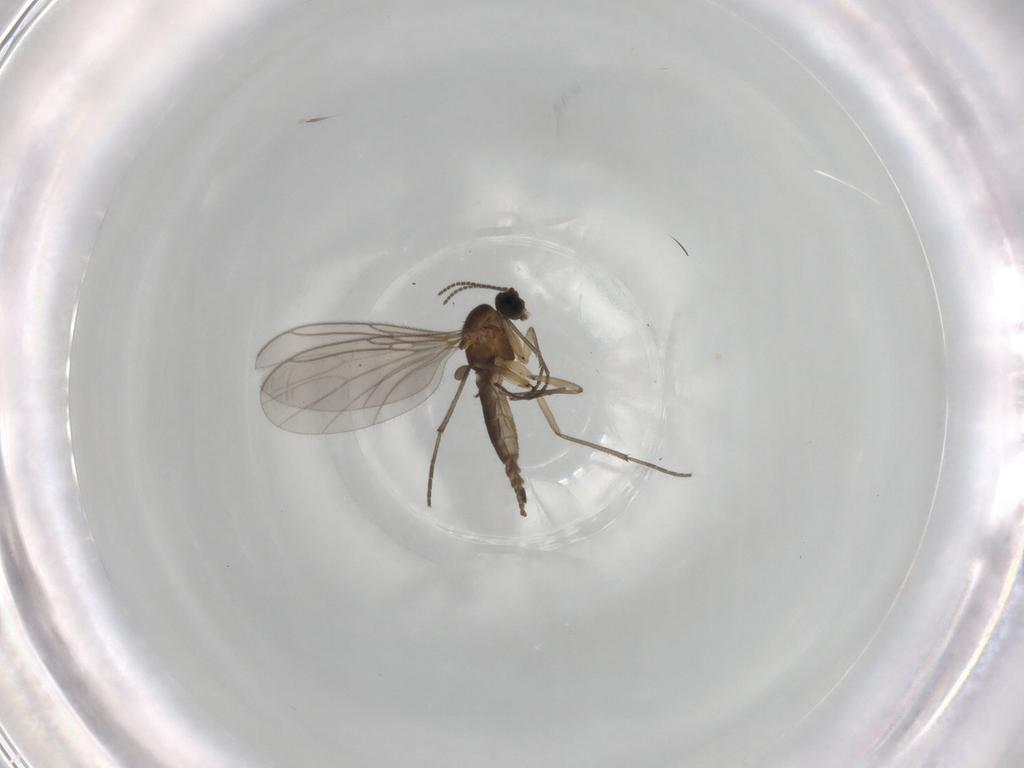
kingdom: Animalia
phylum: Arthropoda
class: Insecta
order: Diptera
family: Sciaridae
